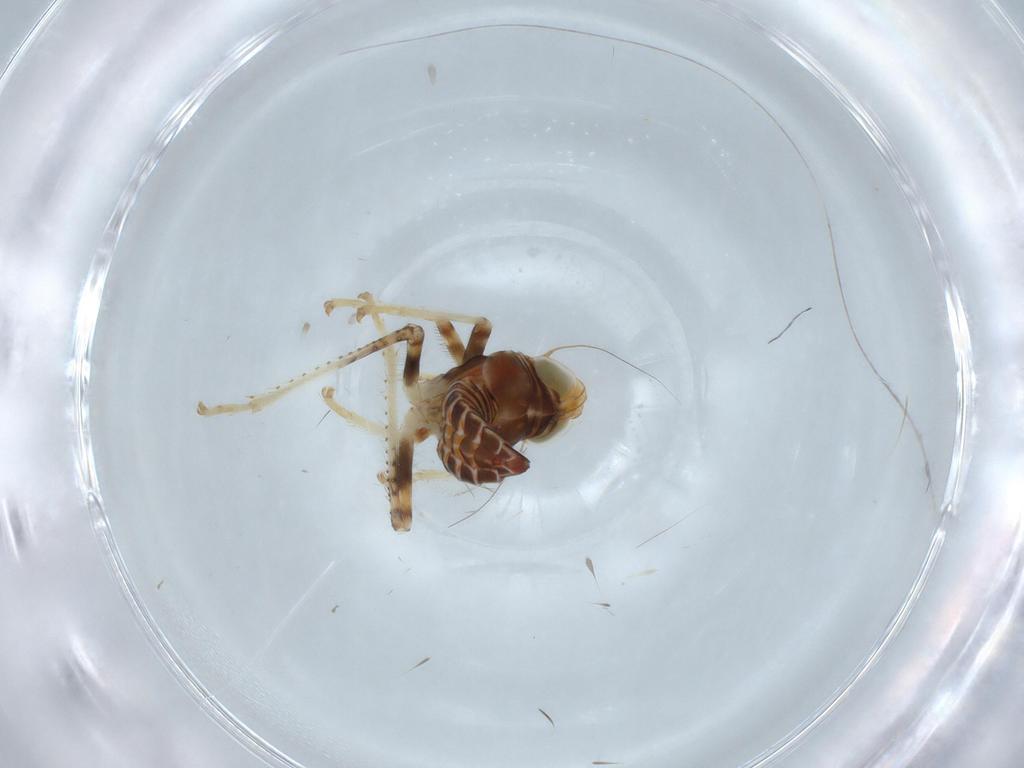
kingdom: Animalia
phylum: Arthropoda
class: Insecta
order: Hemiptera
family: Cicadellidae
